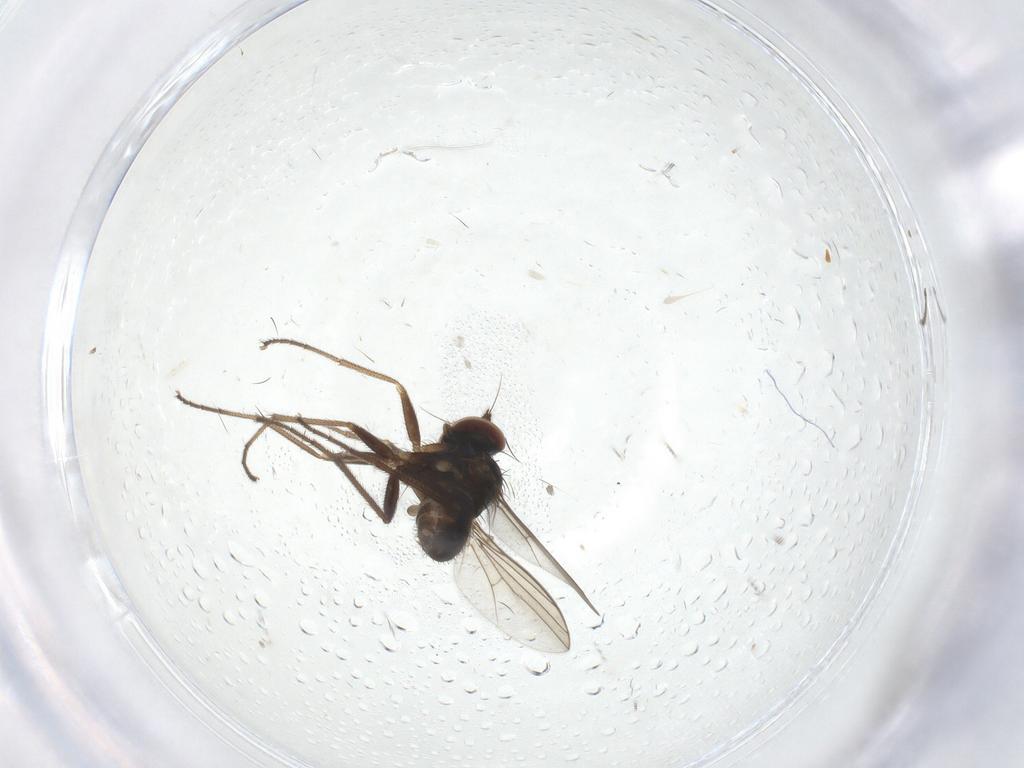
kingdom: Animalia
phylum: Arthropoda
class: Insecta
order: Diptera
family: Dolichopodidae
